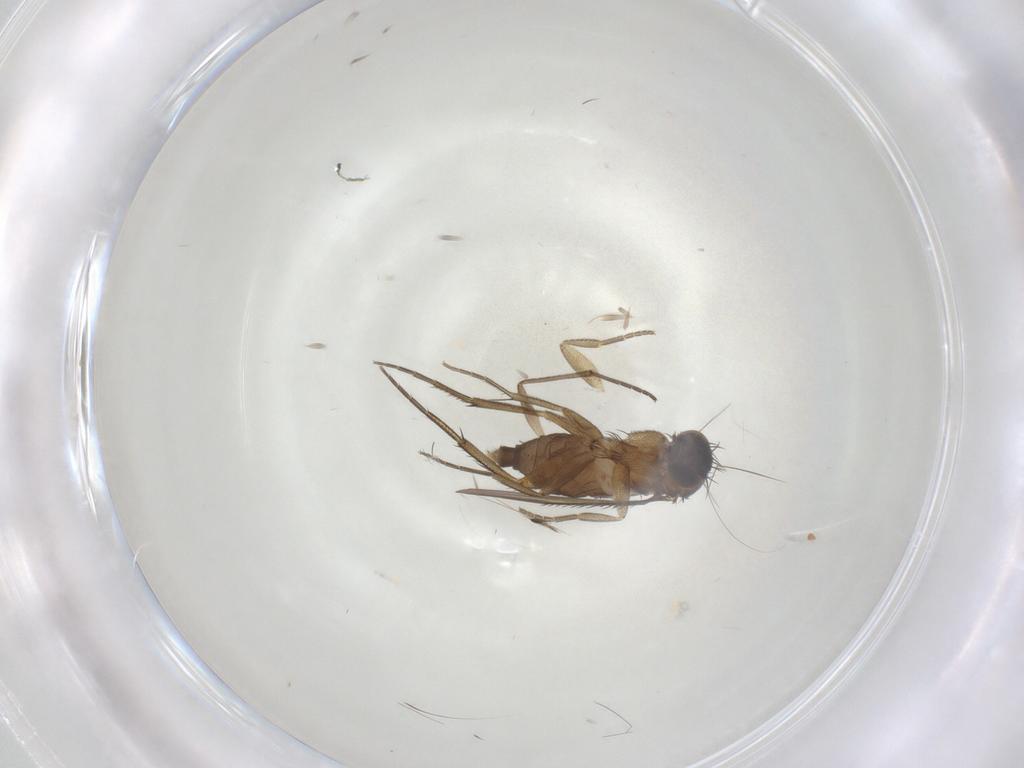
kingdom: Animalia
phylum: Arthropoda
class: Insecta
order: Diptera
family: Phoridae
